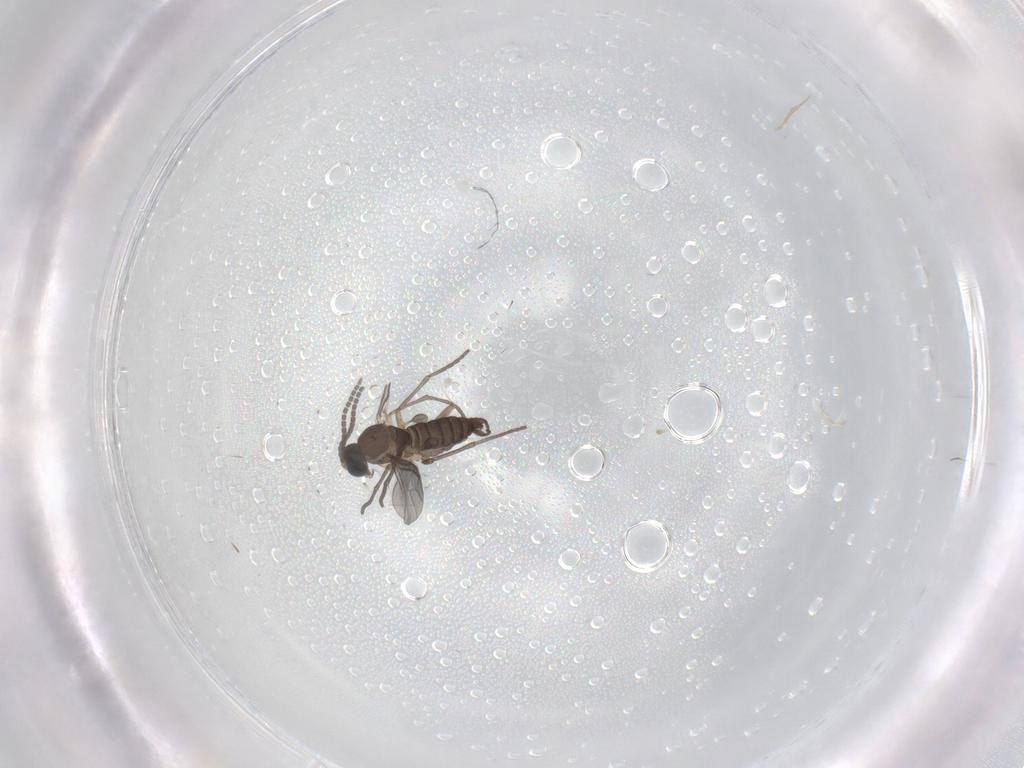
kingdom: Animalia
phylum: Arthropoda
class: Insecta
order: Diptera
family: Sciaridae
